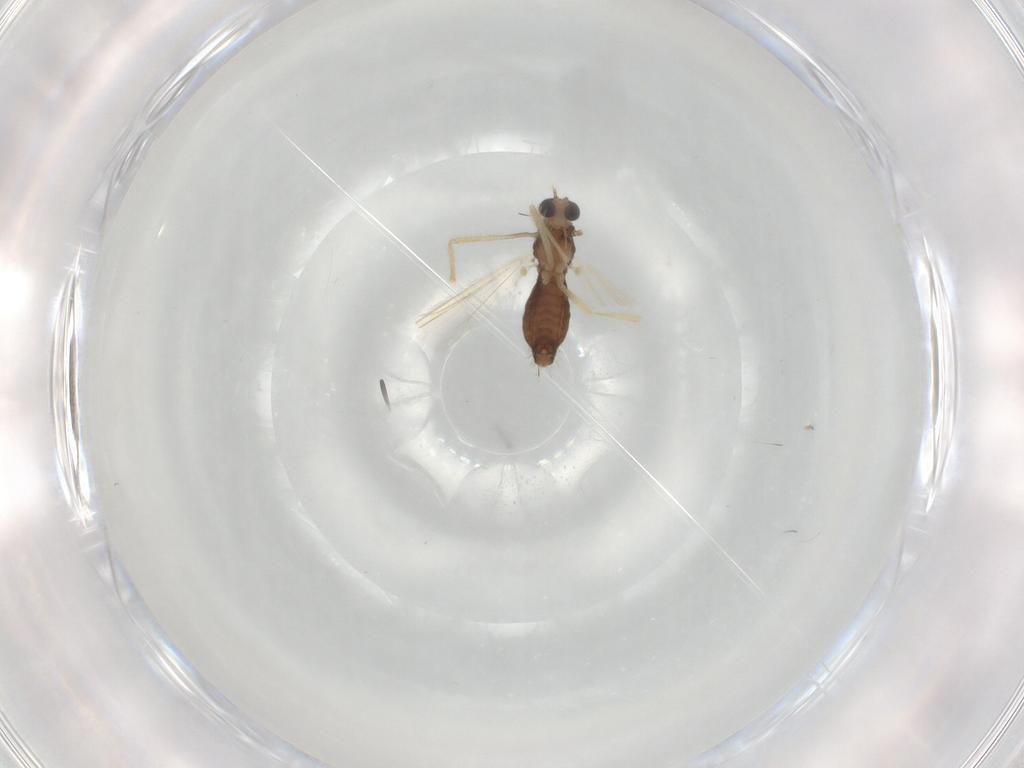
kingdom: Animalia
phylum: Arthropoda
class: Insecta
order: Diptera
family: Chironomidae
